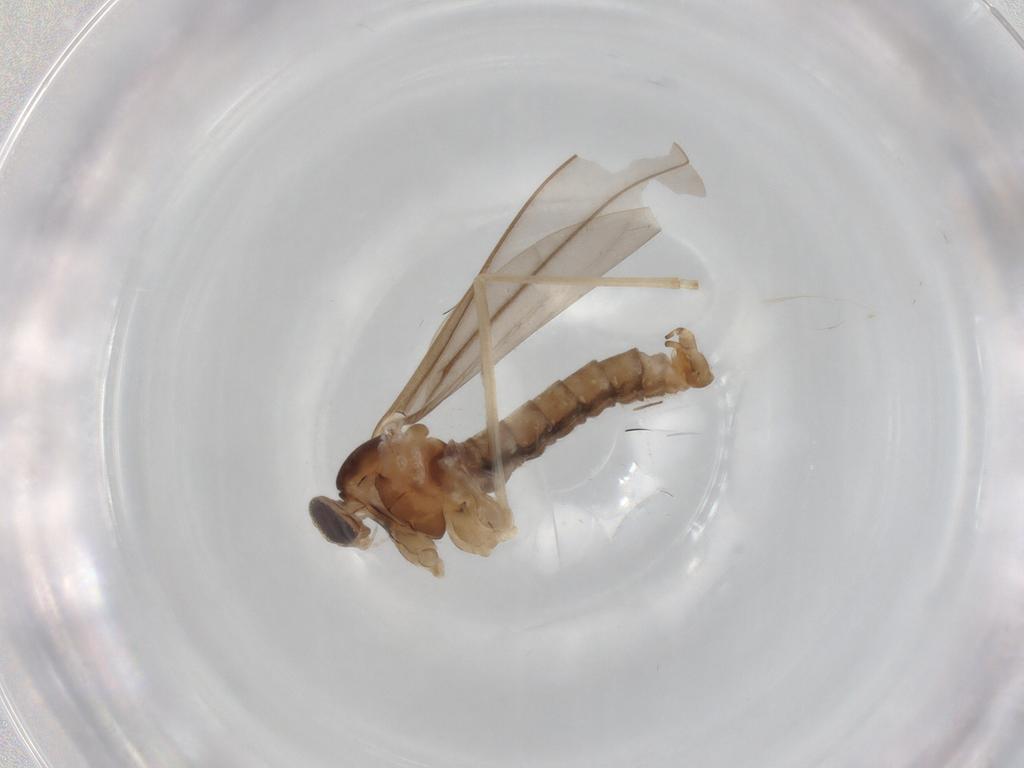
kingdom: Animalia
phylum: Arthropoda
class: Insecta
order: Diptera
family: Cecidomyiidae
